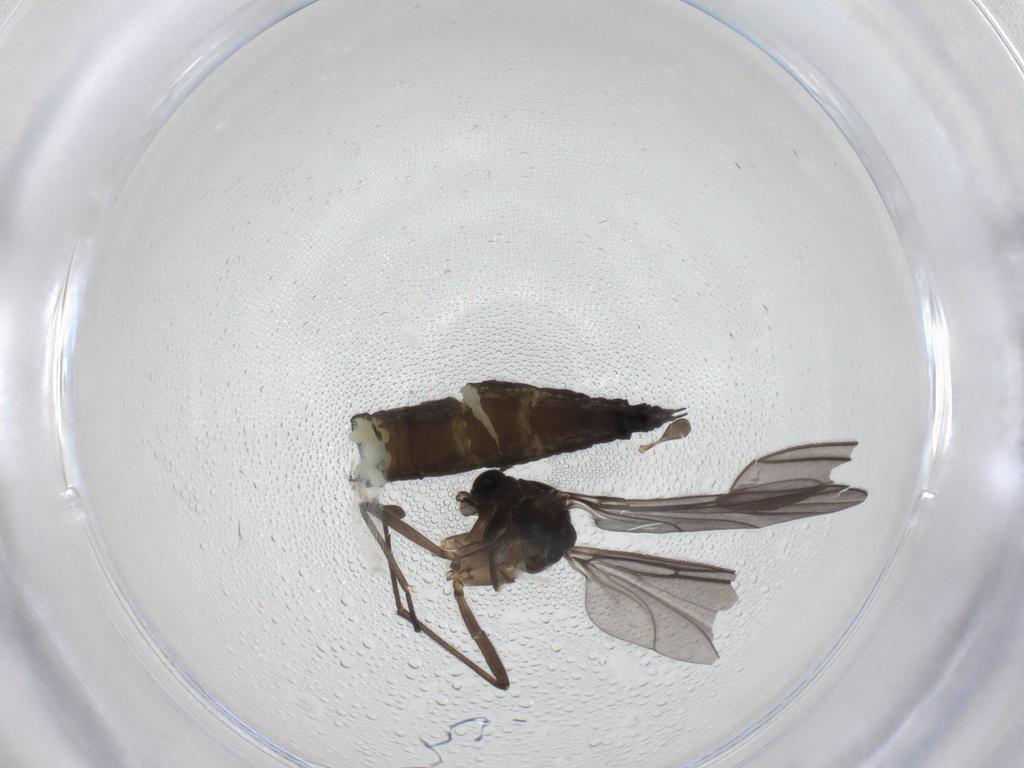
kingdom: Animalia
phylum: Arthropoda
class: Insecta
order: Diptera
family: Sciaridae
